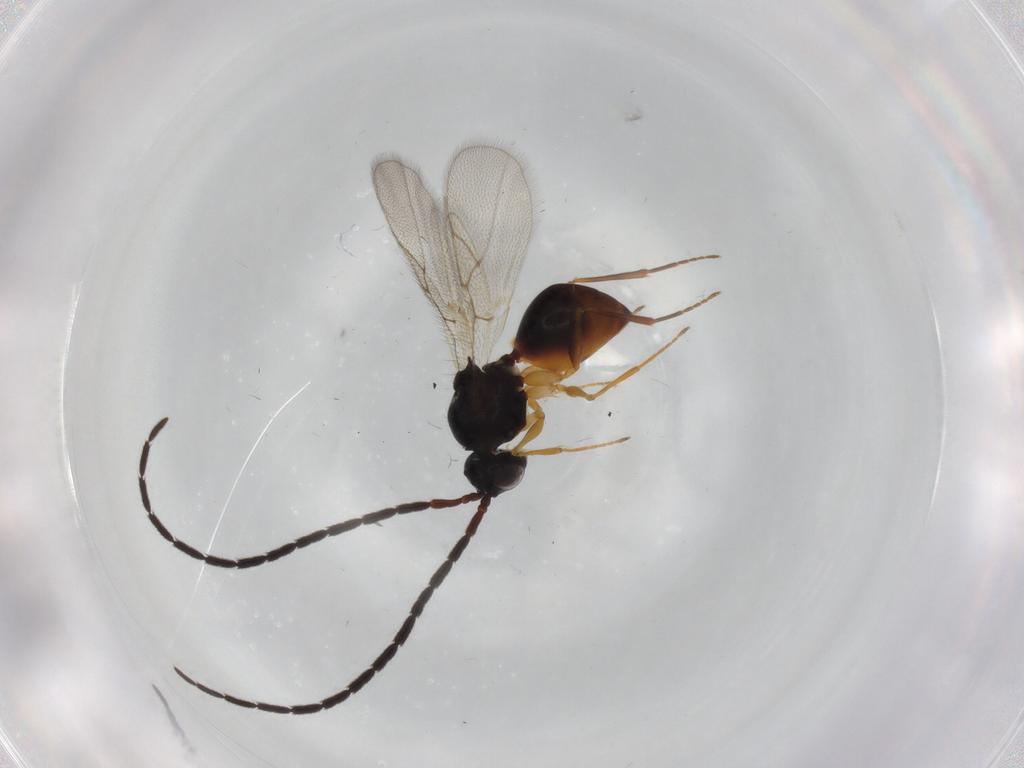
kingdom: Animalia
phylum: Arthropoda
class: Insecta
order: Hymenoptera
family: Figitidae
